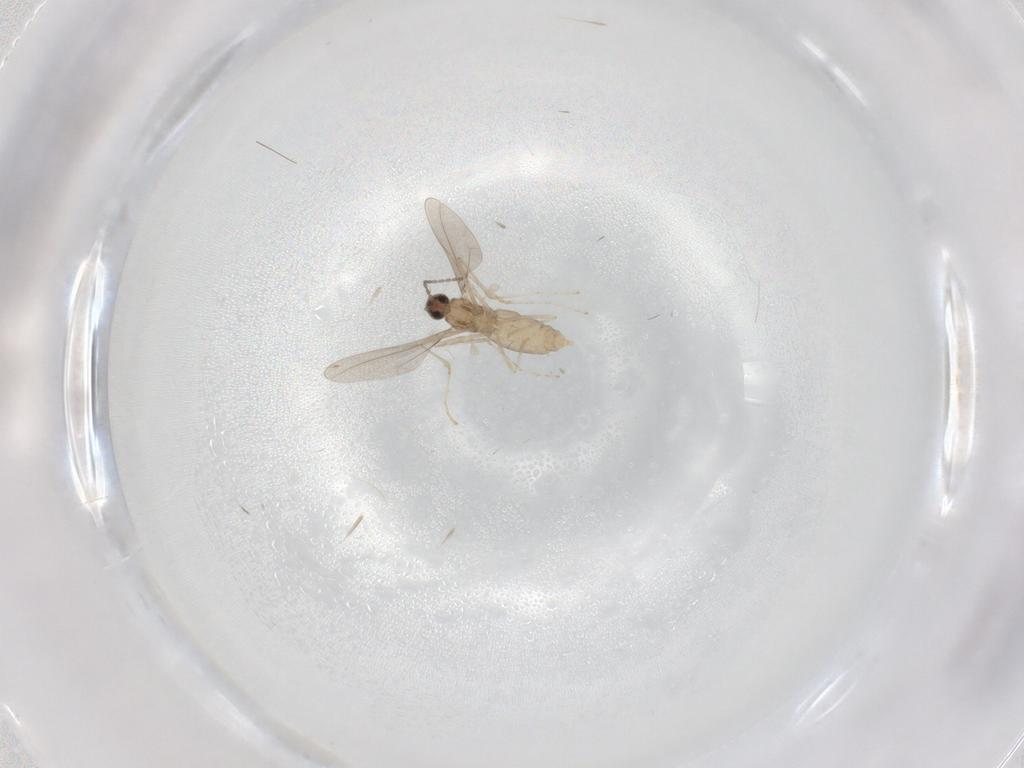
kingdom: Animalia
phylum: Arthropoda
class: Insecta
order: Diptera
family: Cecidomyiidae
